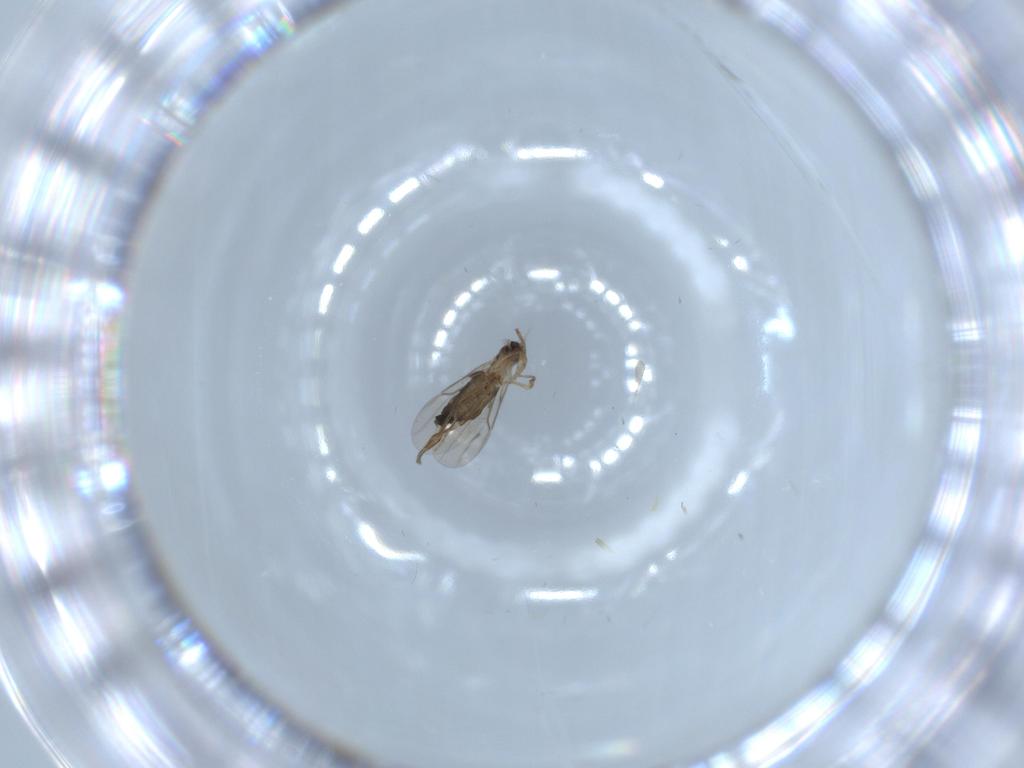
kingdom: Animalia
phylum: Arthropoda
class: Insecta
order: Diptera
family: Phoridae
